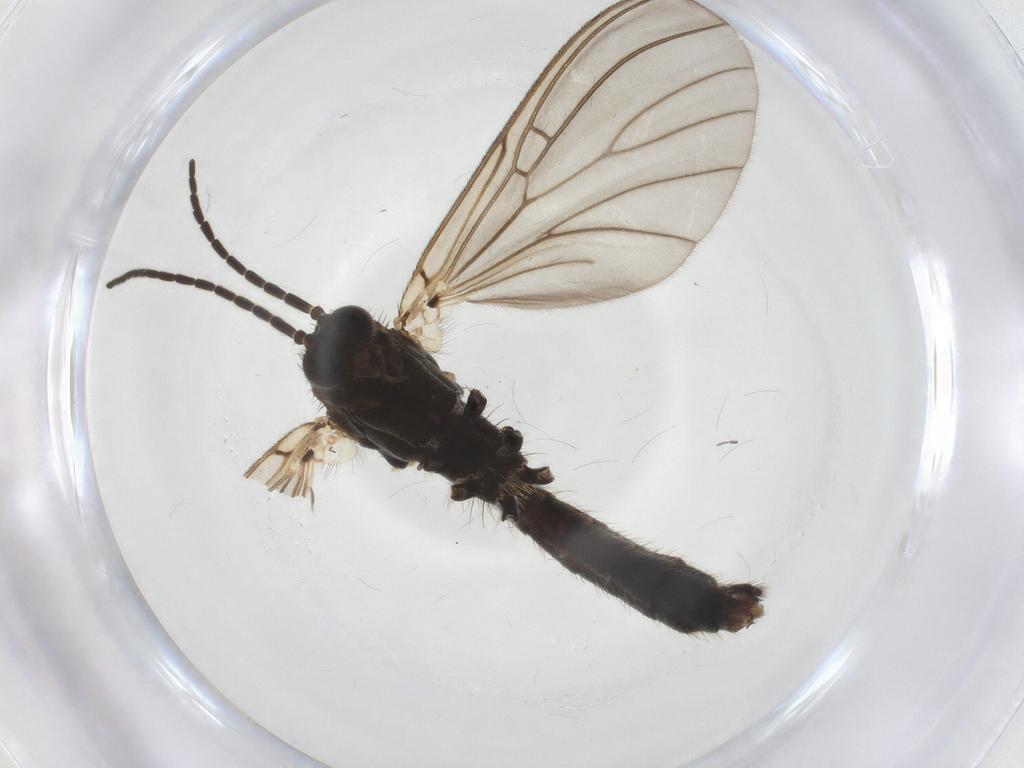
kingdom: Animalia
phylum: Arthropoda
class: Insecta
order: Diptera
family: Mycetophilidae
